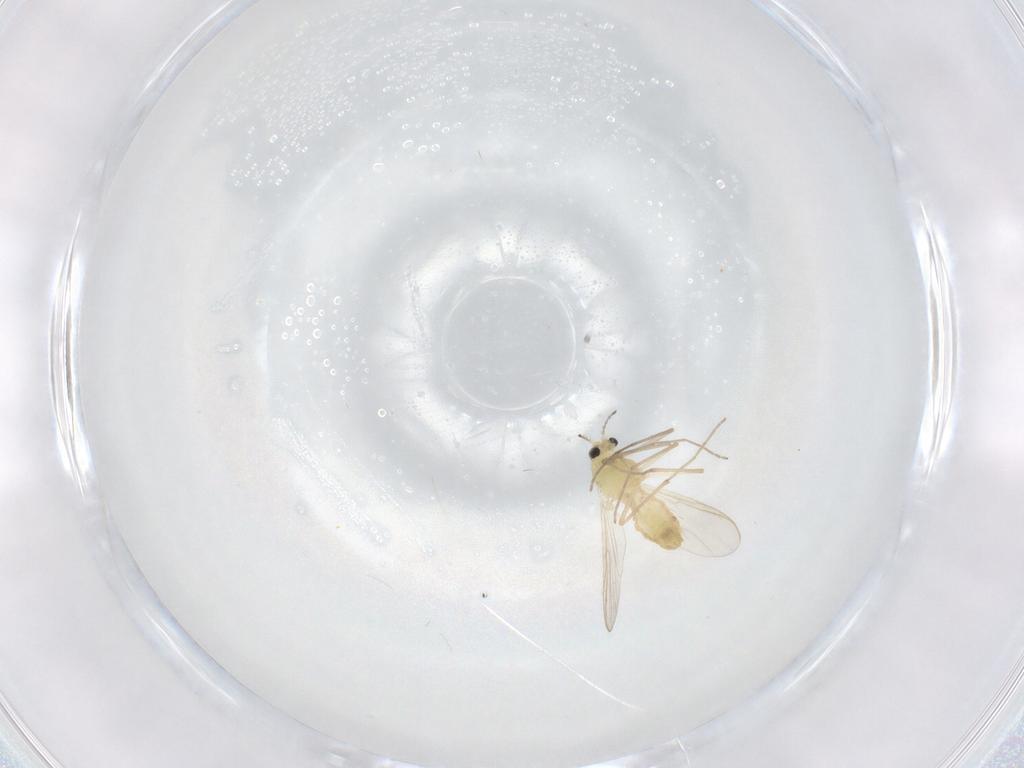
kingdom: Animalia
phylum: Arthropoda
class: Insecta
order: Diptera
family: Chironomidae
